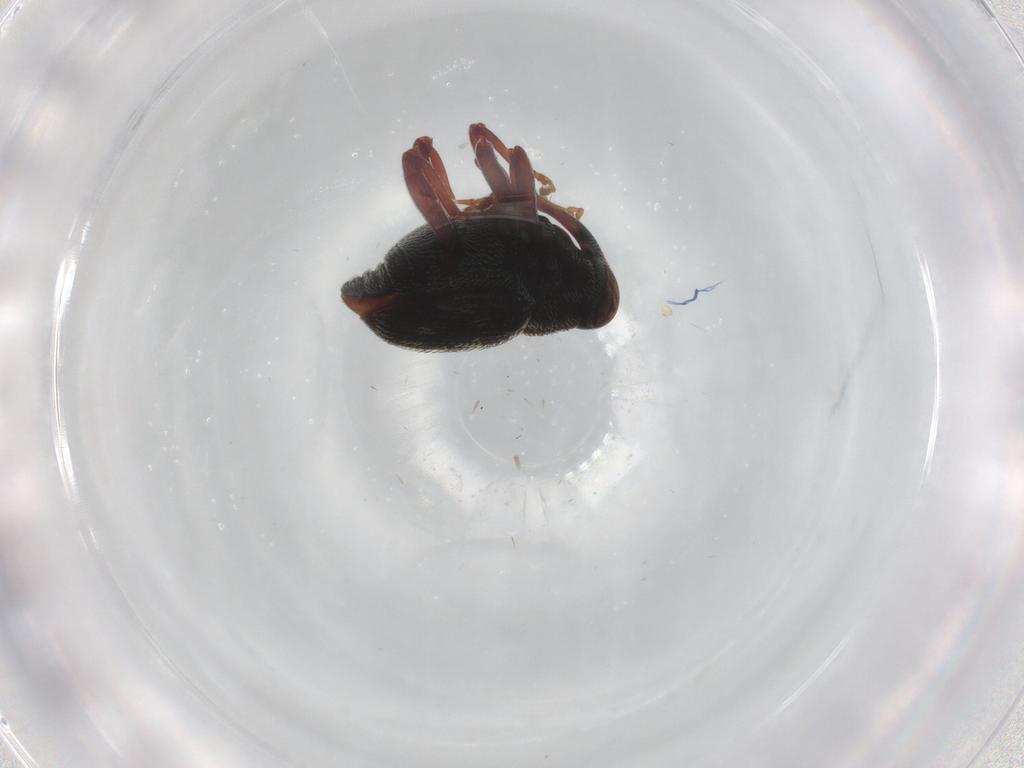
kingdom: Animalia
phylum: Arthropoda
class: Insecta
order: Coleoptera
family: Curculionidae
